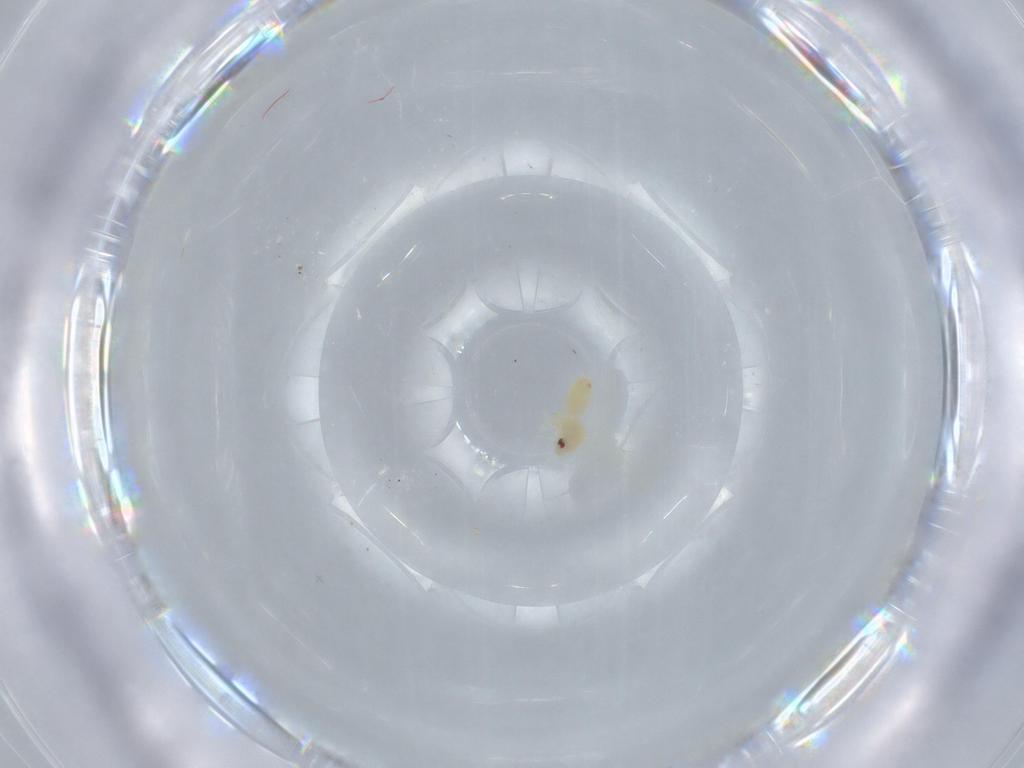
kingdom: Animalia
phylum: Arthropoda
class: Insecta
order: Hemiptera
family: Aleyrodidae
